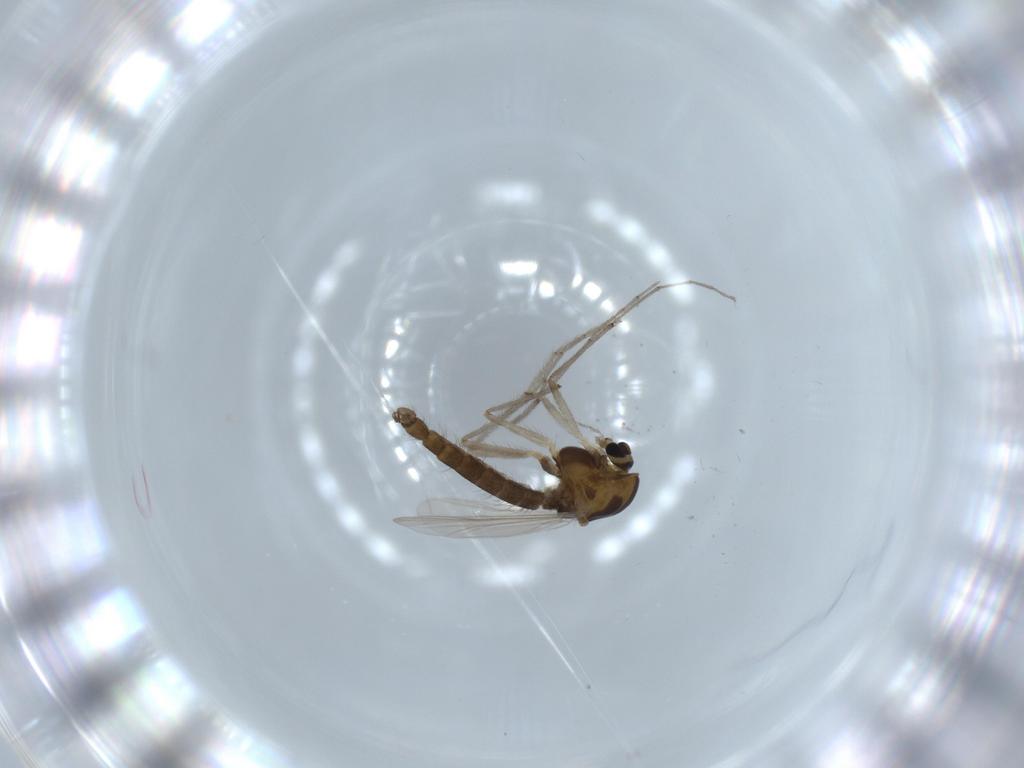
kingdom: Animalia
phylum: Arthropoda
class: Insecta
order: Diptera
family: Chironomidae
